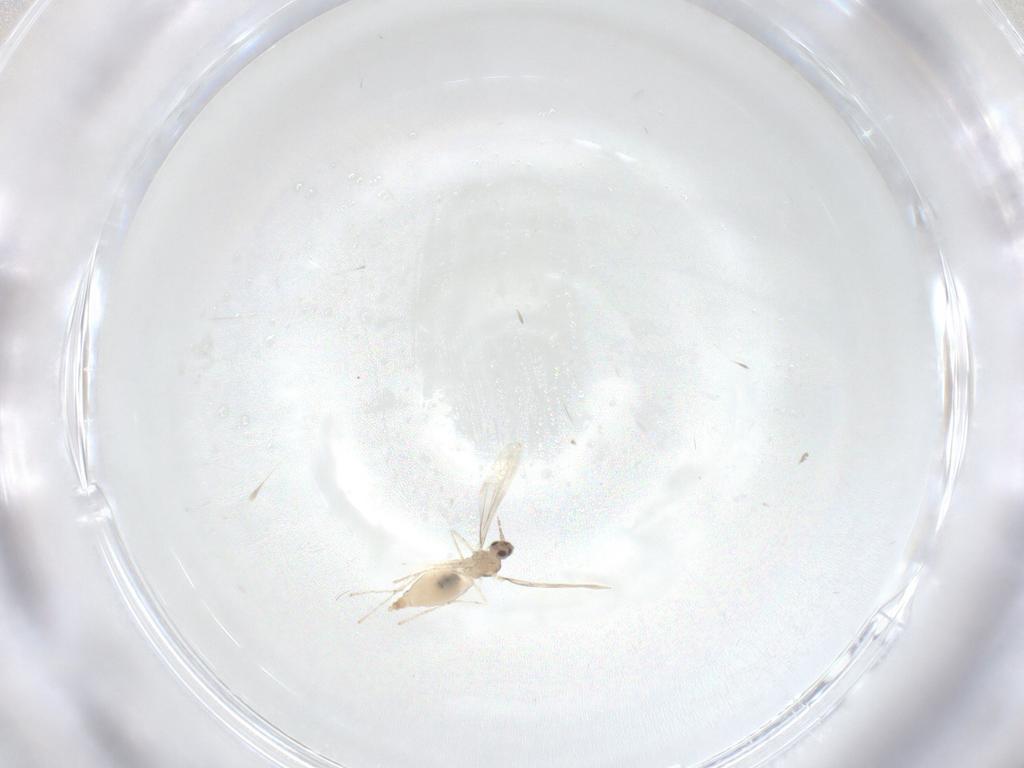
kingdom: Animalia
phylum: Arthropoda
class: Insecta
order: Diptera
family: Cecidomyiidae
